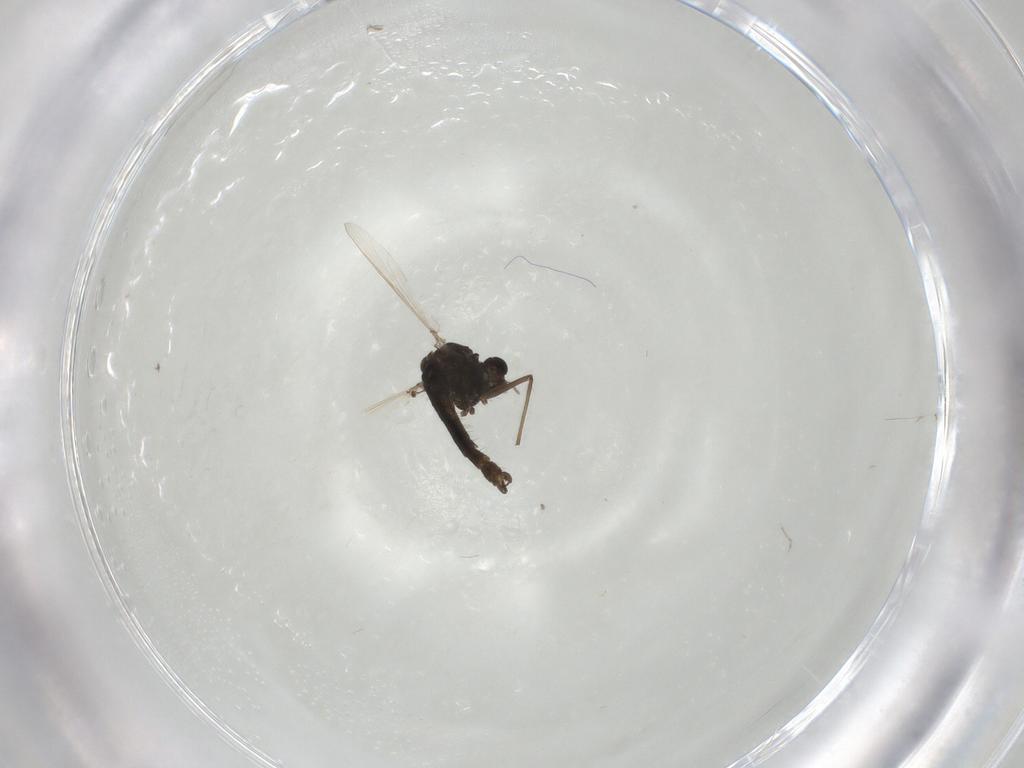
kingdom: Animalia
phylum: Arthropoda
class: Insecta
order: Diptera
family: Chironomidae
